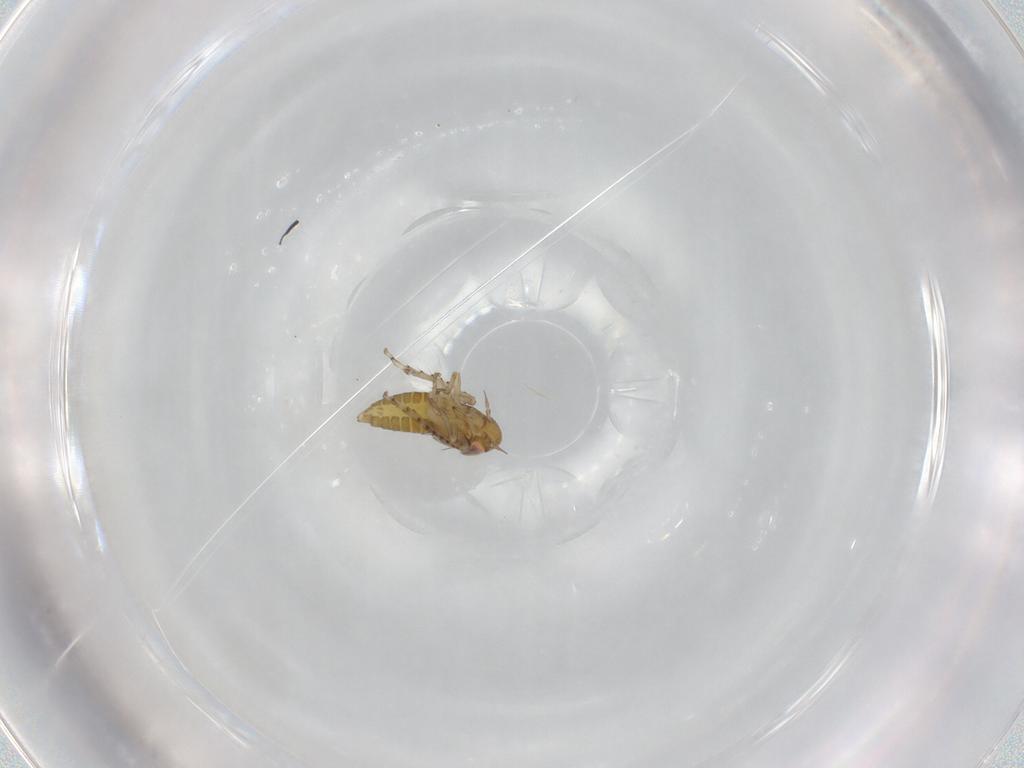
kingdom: Animalia
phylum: Arthropoda
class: Insecta
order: Hemiptera
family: Cicadellidae
